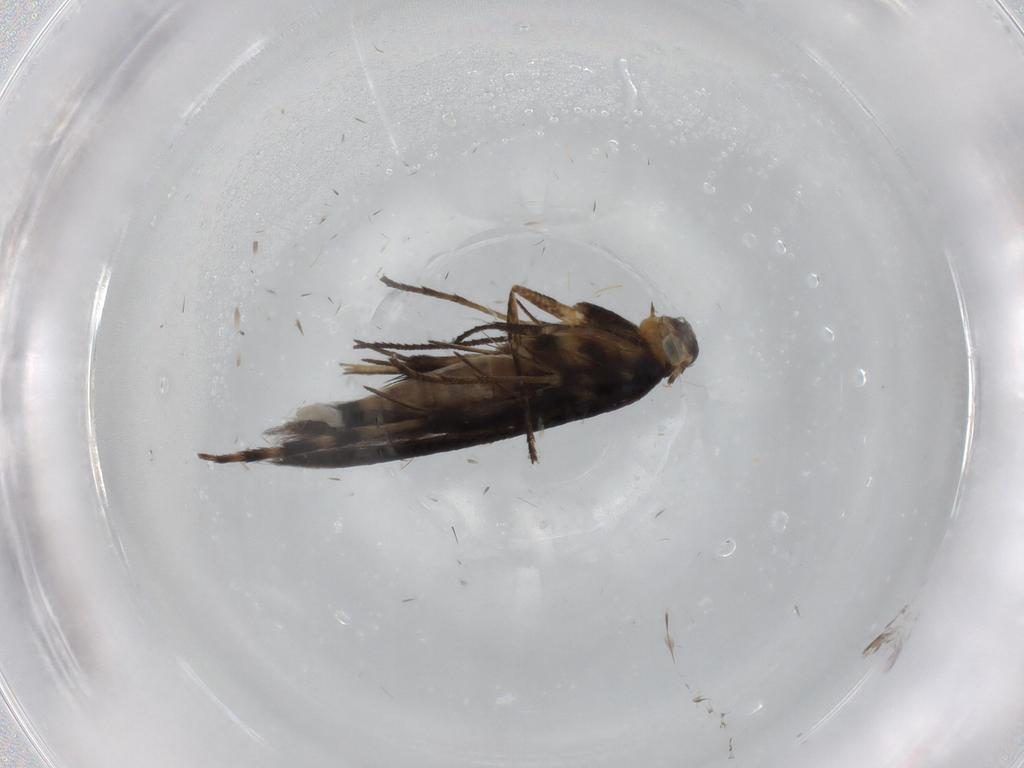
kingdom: Animalia
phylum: Arthropoda
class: Insecta
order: Lepidoptera
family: Heliodinidae
